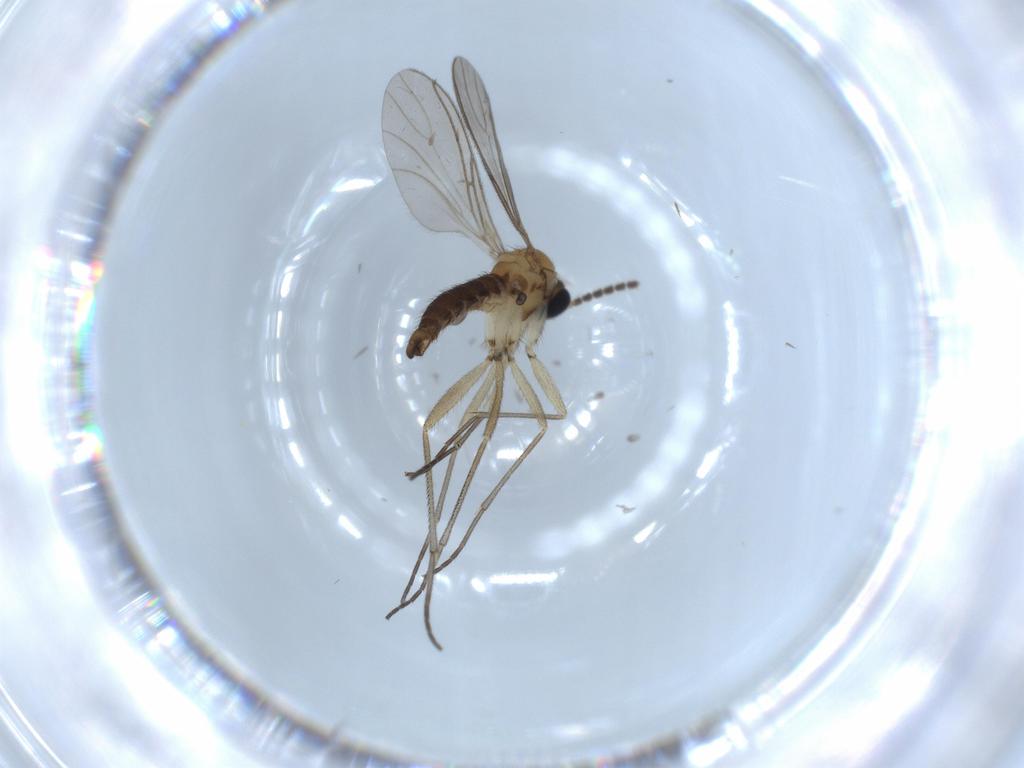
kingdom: Animalia
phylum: Arthropoda
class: Insecta
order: Diptera
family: Sciaridae
